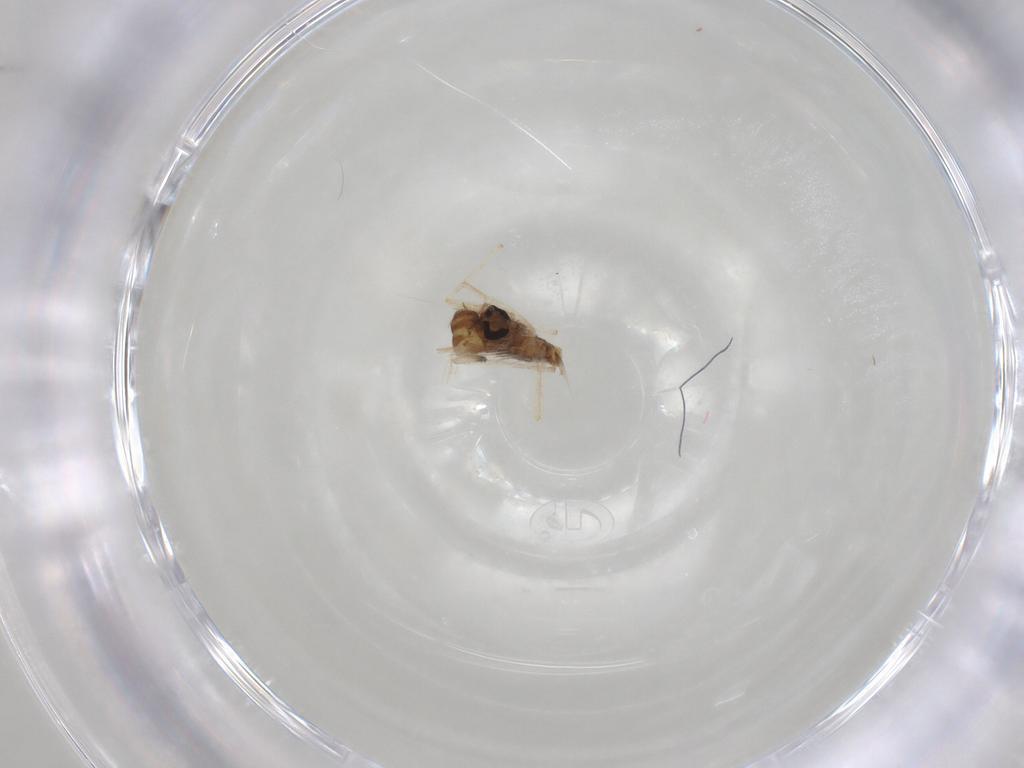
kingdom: Animalia
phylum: Arthropoda
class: Insecta
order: Diptera
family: Chironomidae
